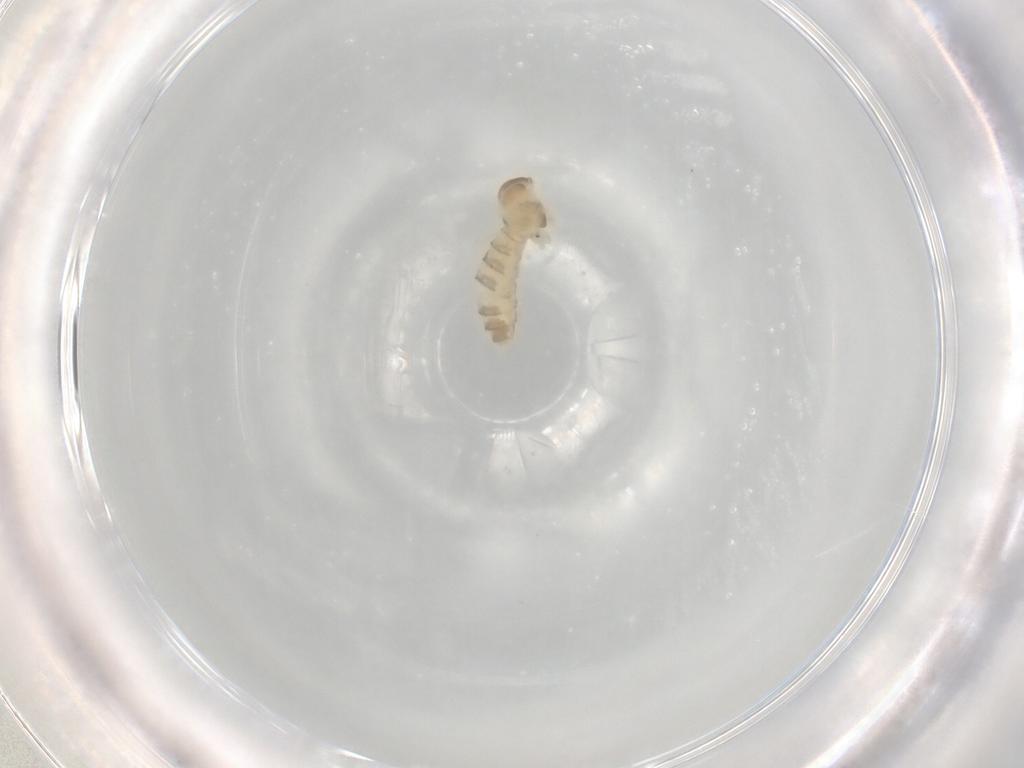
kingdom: Animalia
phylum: Arthropoda
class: Insecta
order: Diptera
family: Cecidomyiidae
